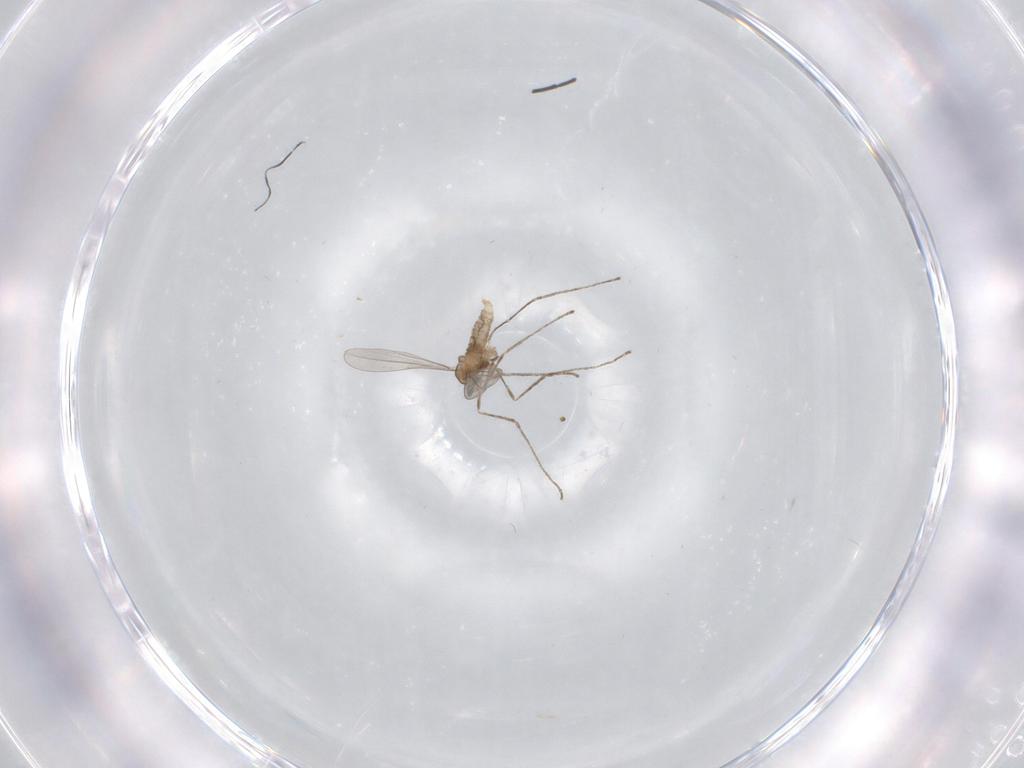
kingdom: Animalia
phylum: Arthropoda
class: Insecta
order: Diptera
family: Cecidomyiidae
